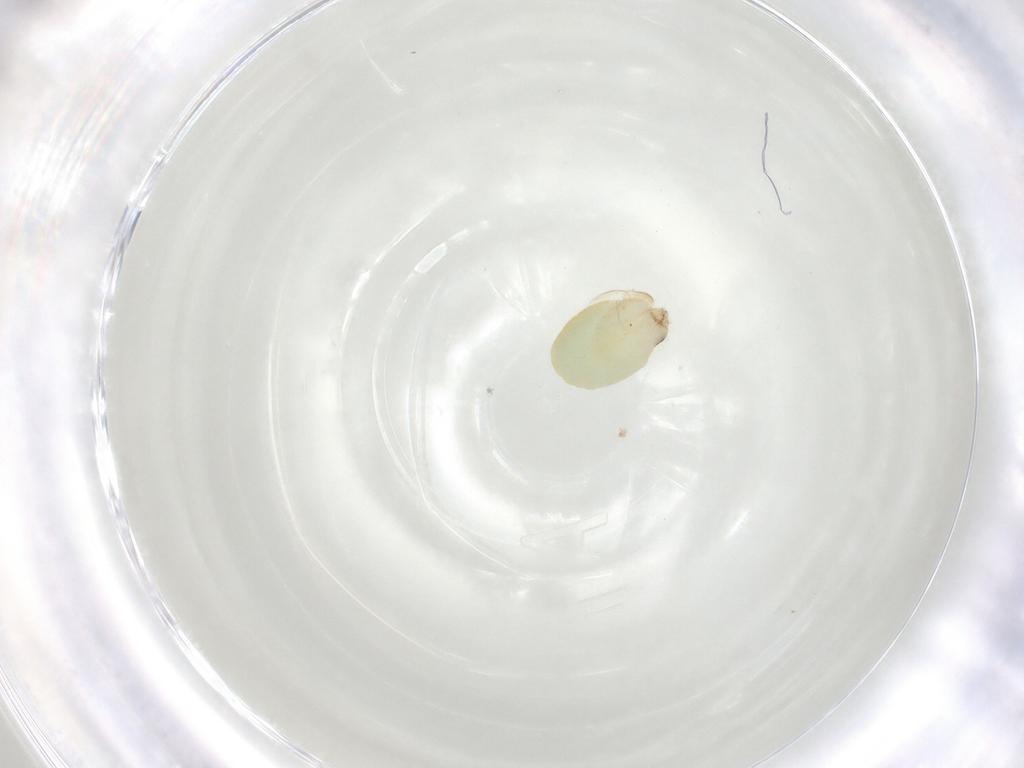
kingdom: Animalia
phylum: Arthropoda
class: Insecta
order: Hymenoptera
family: Dryinidae
